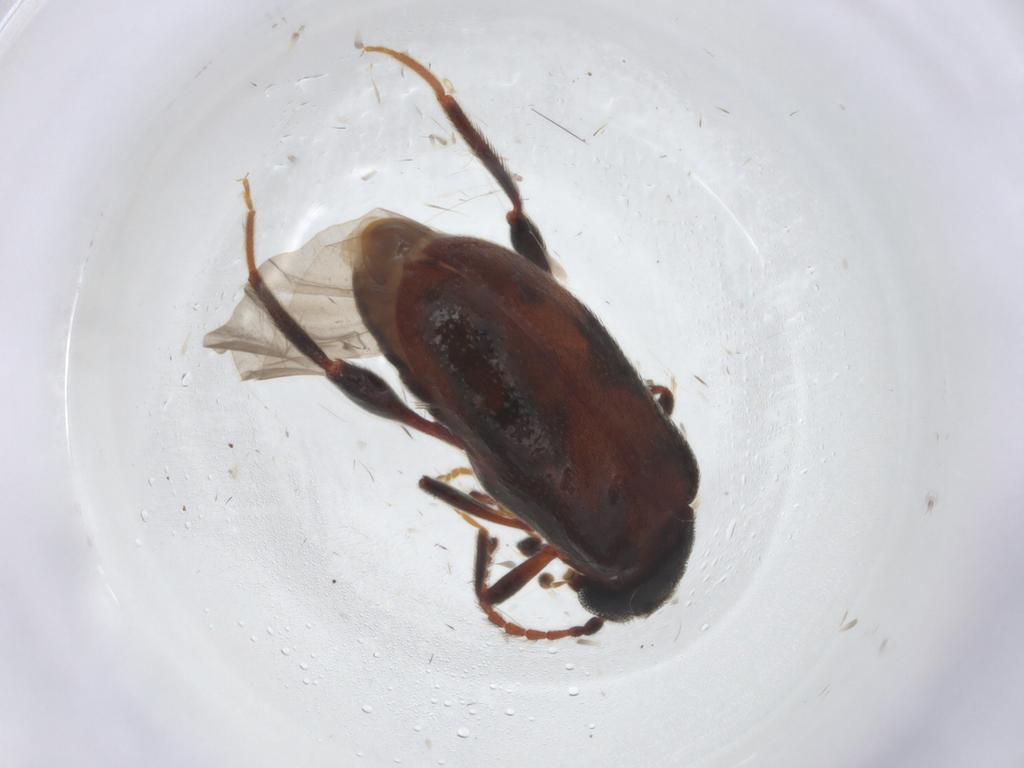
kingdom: Animalia
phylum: Arthropoda
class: Insecta
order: Coleoptera
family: Aderidae
